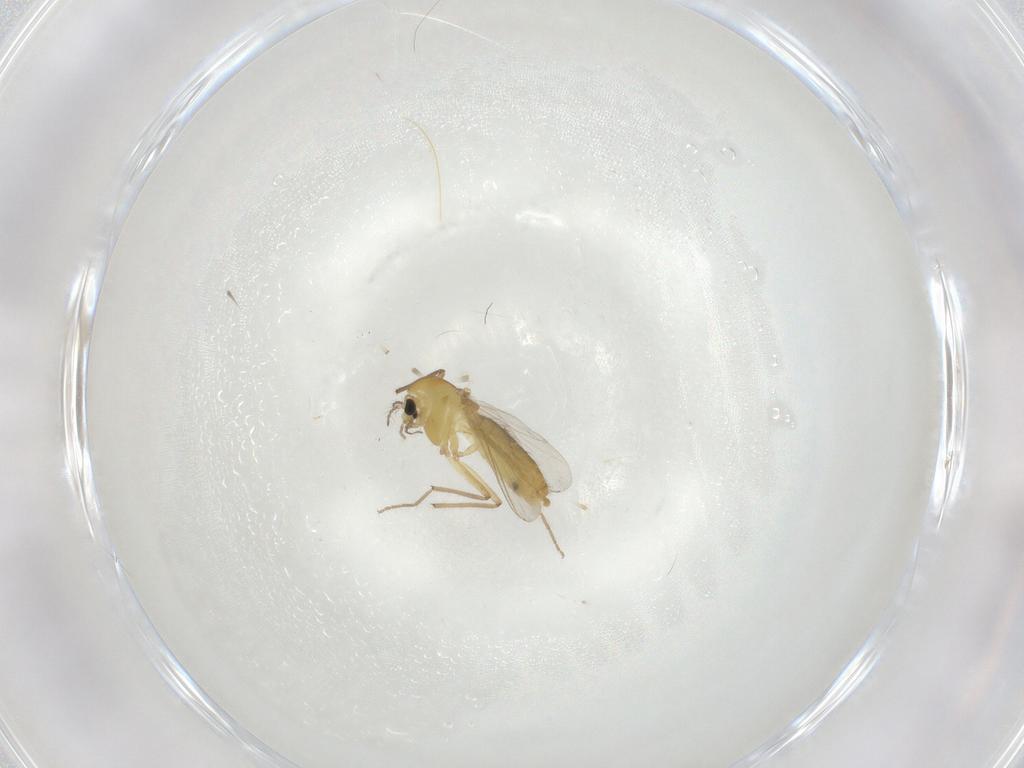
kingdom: Animalia
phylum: Arthropoda
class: Insecta
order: Diptera
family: Chironomidae
